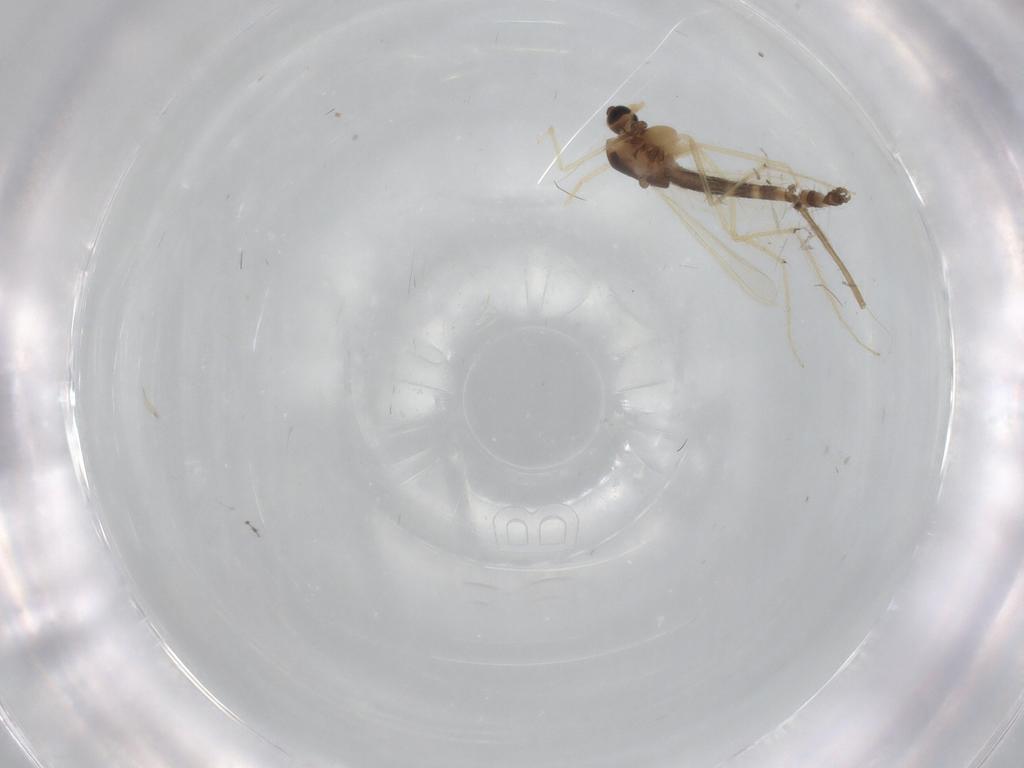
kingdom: Animalia
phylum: Arthropoda
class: Insecta
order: Diptera
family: Chironomidae
